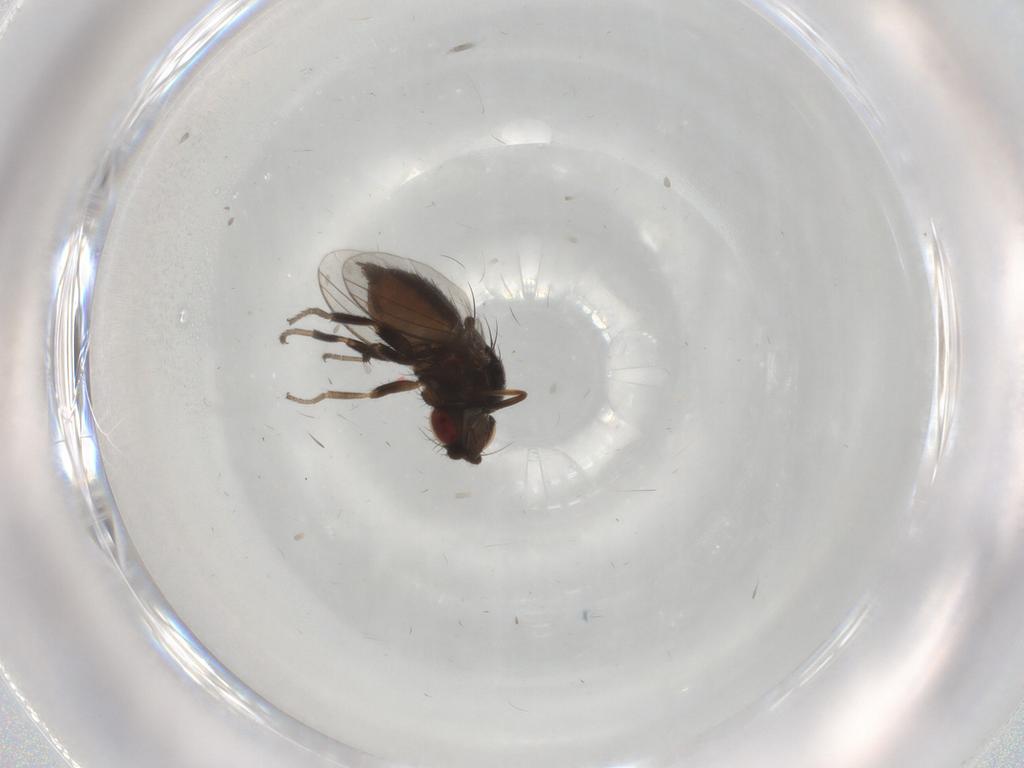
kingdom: Animalia
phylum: Arthropoda
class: Insecta
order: Diptera
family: Milichiidae
